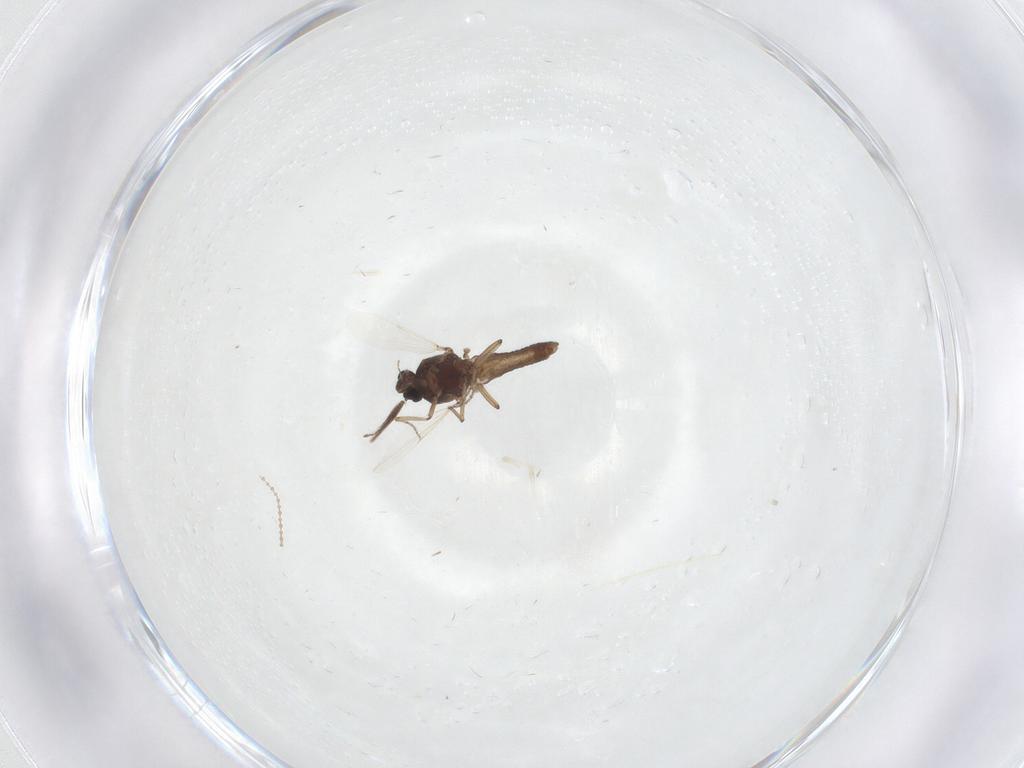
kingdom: Animalia
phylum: Arthropoda
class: Insecta
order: Diptera
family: Ceratopogonidae
